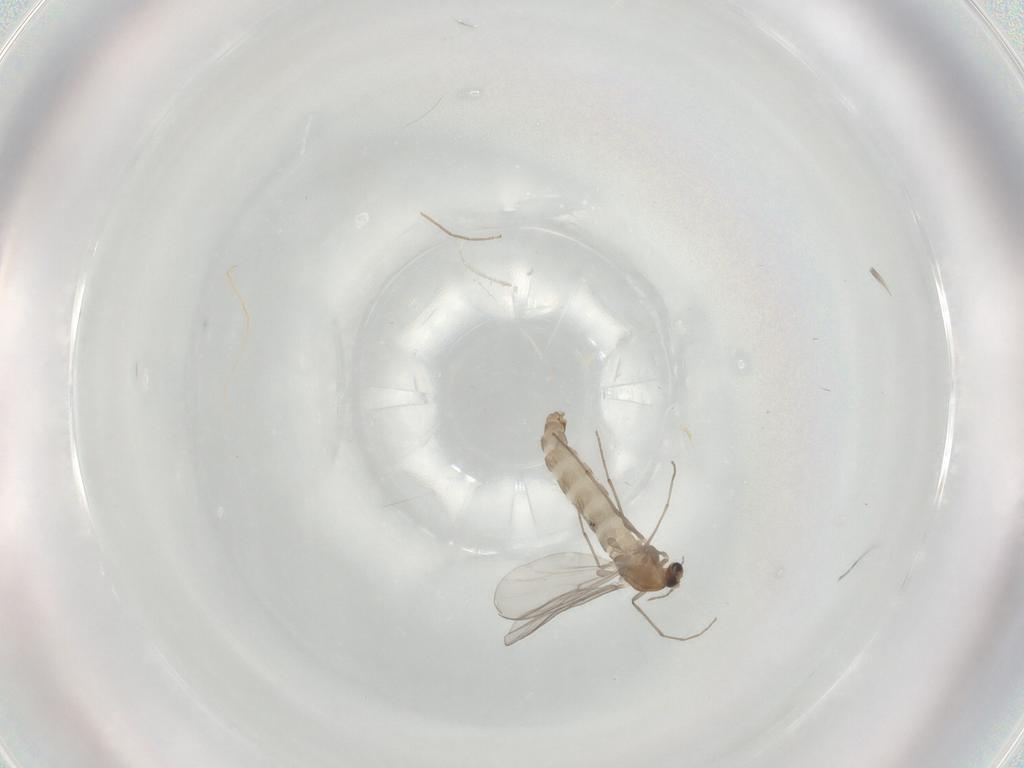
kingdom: Animalia
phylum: Arthropoda
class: Insecta
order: Diptera
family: Chironomidae
